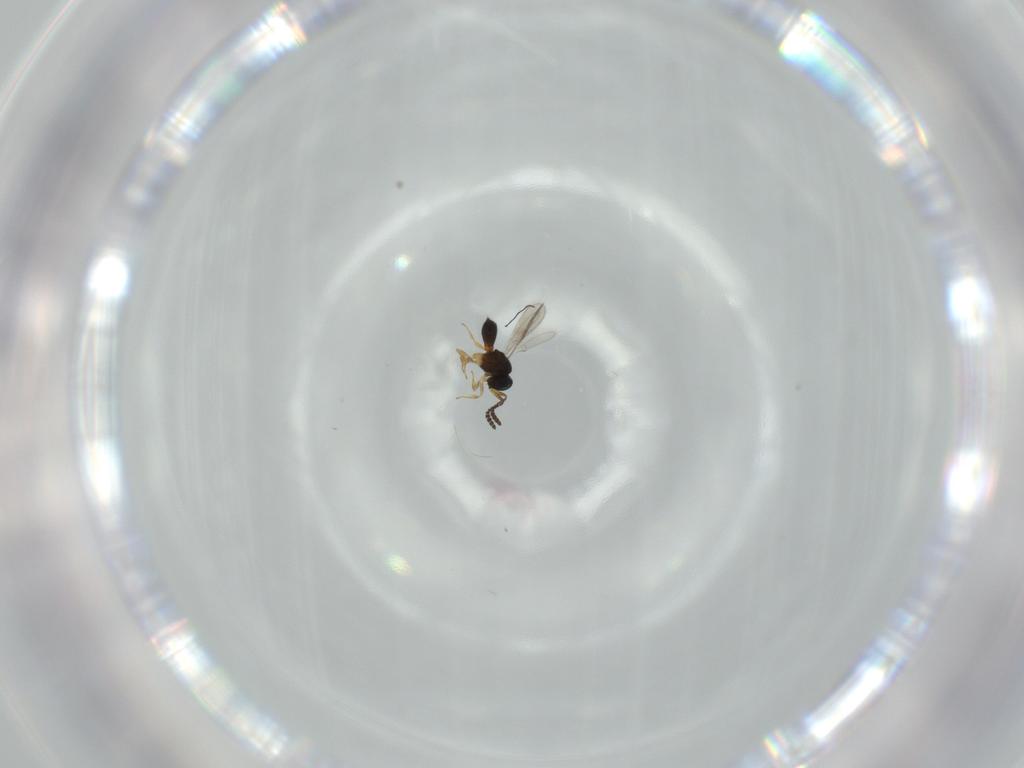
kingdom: Animalia
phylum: Arthropoda
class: Insecta
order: Hymenoptera
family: Scelionidae
